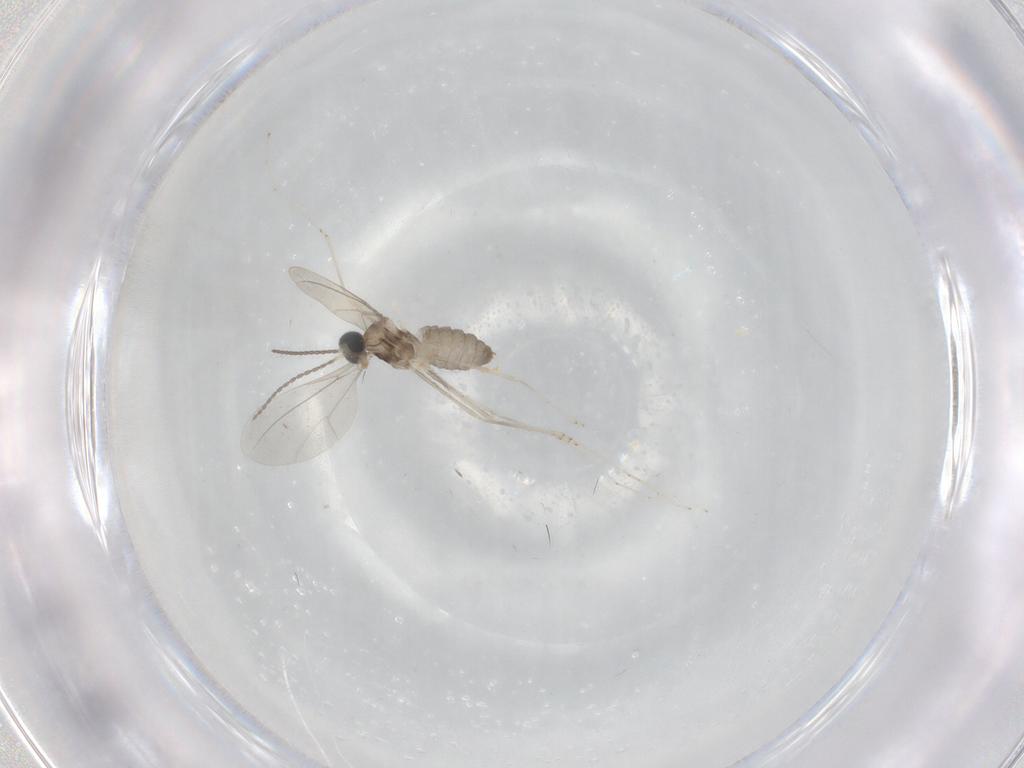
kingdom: Animalia
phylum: Arthropoda
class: Insecta
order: Diptera
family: Cecidomyiidae
